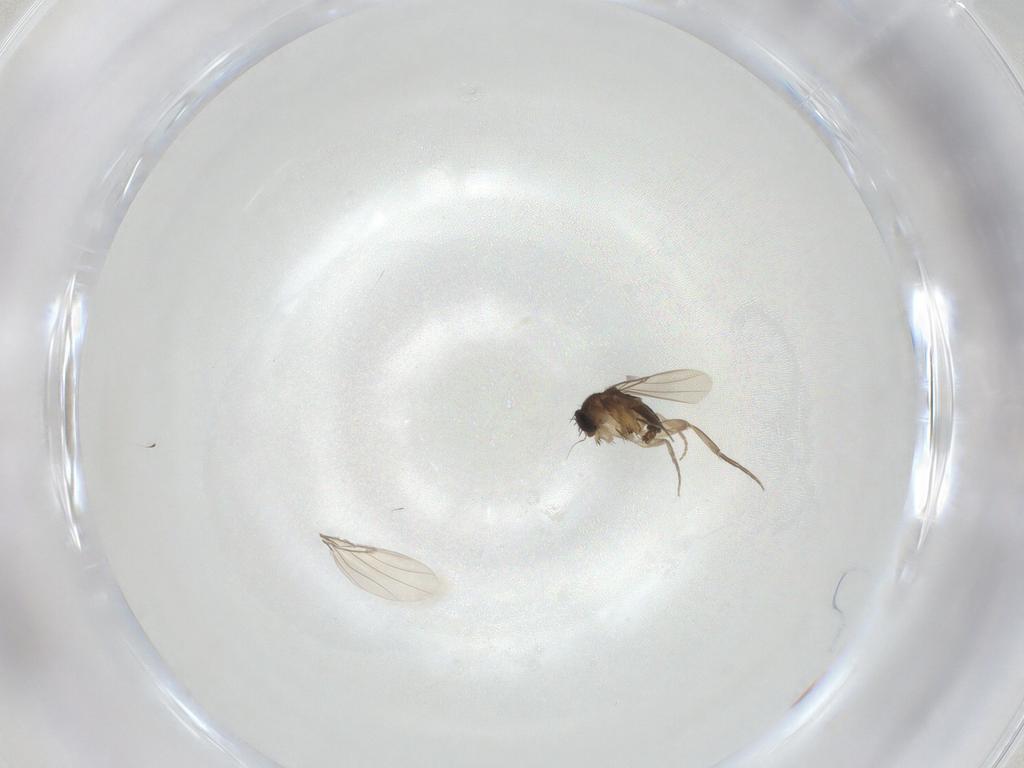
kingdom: Animalia
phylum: Arthropoda
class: Insecta
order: Diptera
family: Phoridae
